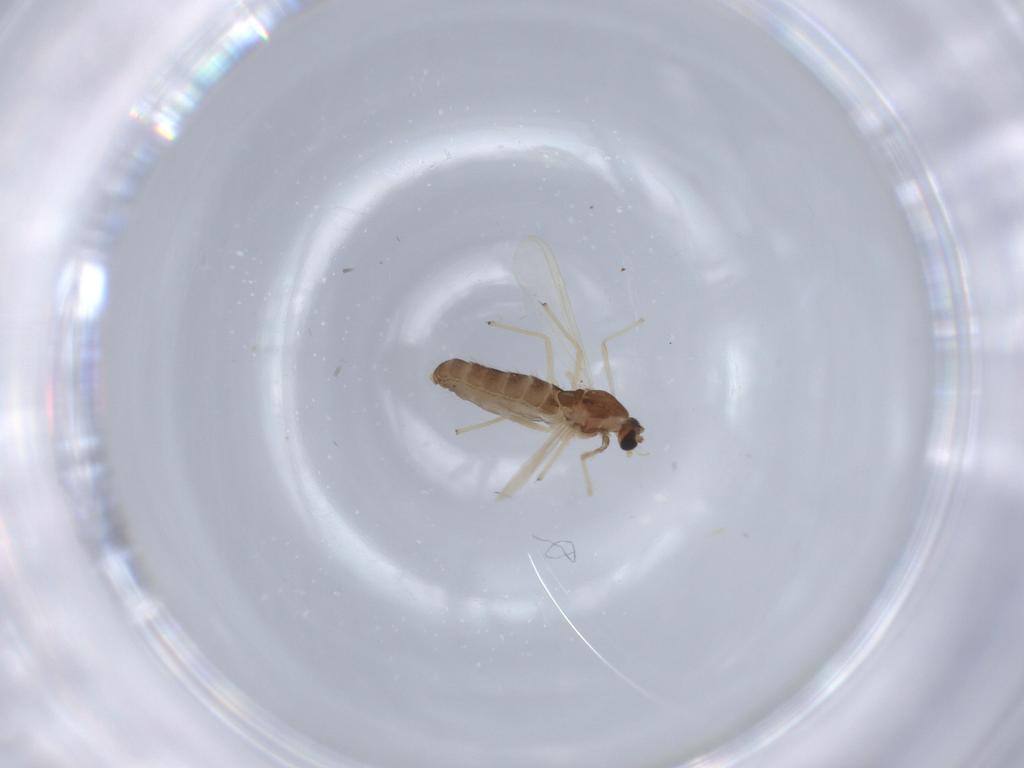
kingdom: Animalia
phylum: Arthropoda
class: Insecta
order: Diptera
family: Chironomidae
